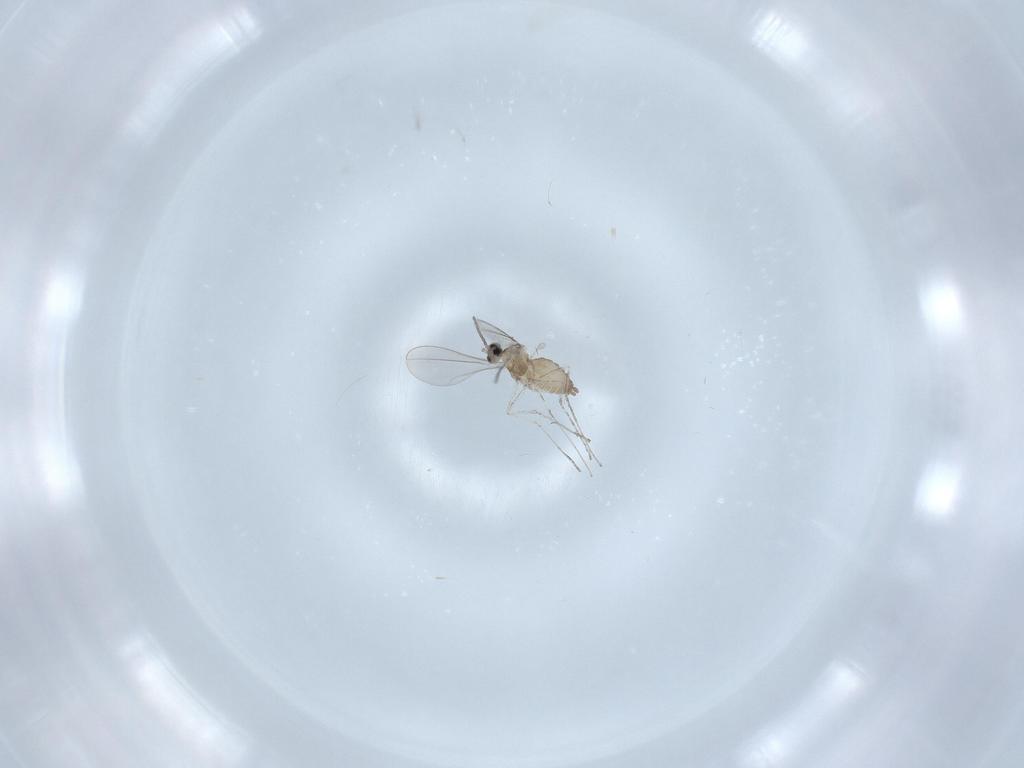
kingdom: Animalia
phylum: Arthropoda
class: Insecta
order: Diptera
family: Cecidomyiidae
